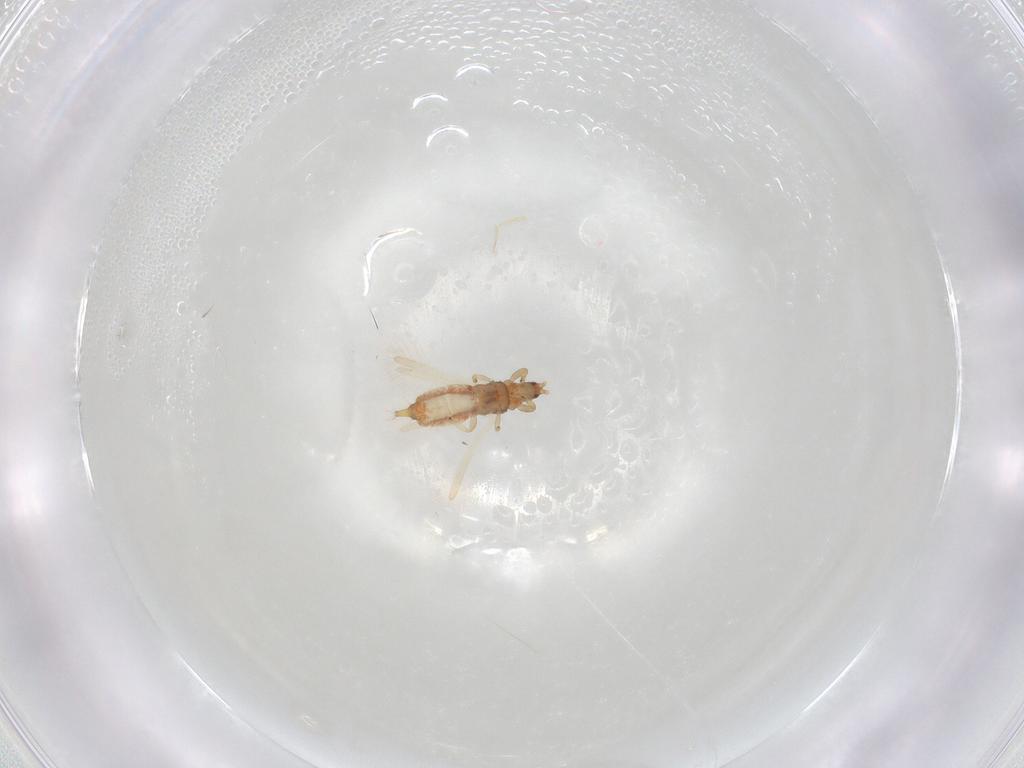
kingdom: Animalia
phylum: Arthropoda
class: Insecta
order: Thysanoptera
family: Phlaeothripidae
